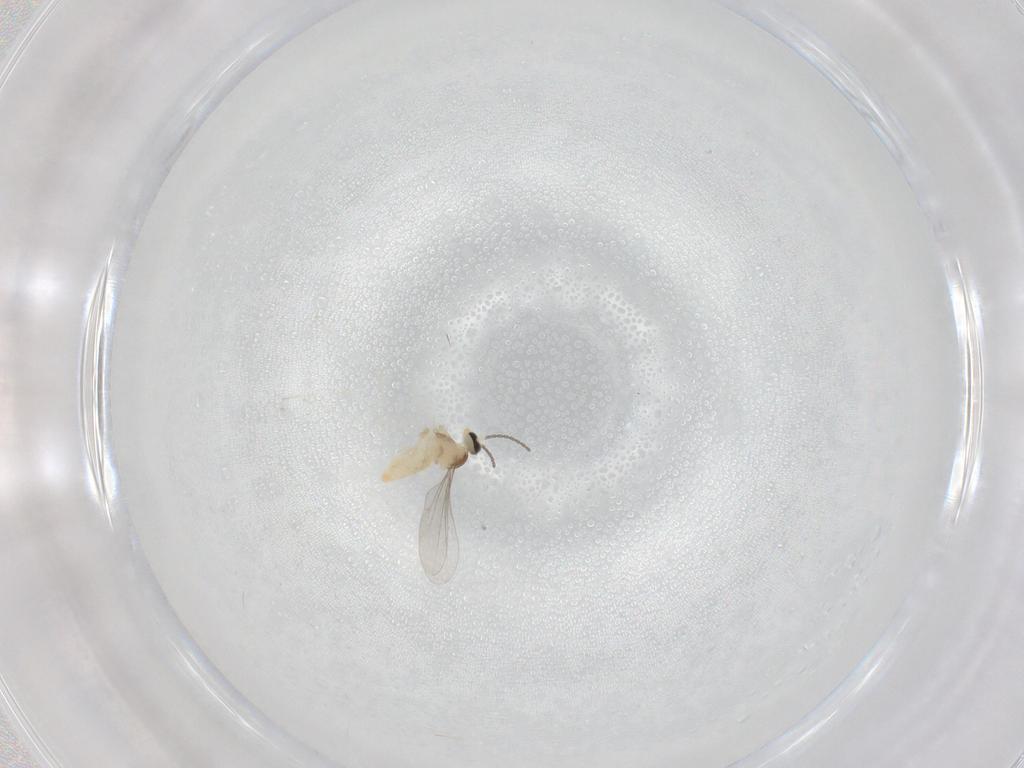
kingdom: Animalia
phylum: Arthropoda
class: Insecta
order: Diptera
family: Cecidomyiidae
